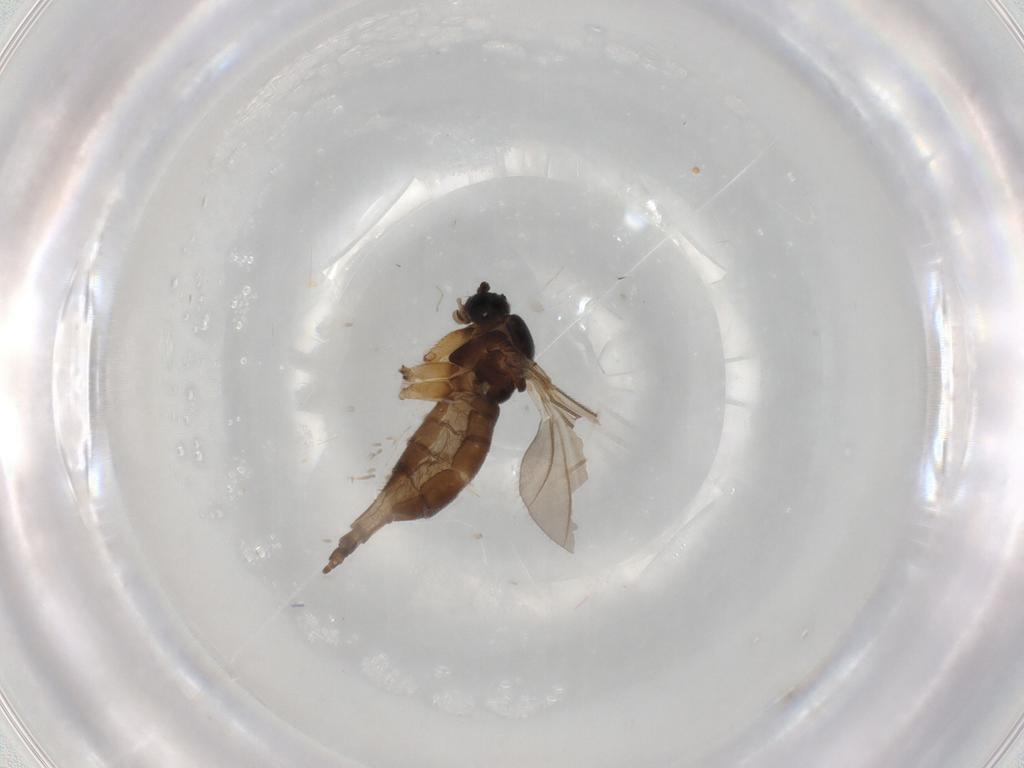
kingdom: Animalia
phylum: Arthropoda
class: Insecta
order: Diptera
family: Sciaridae
